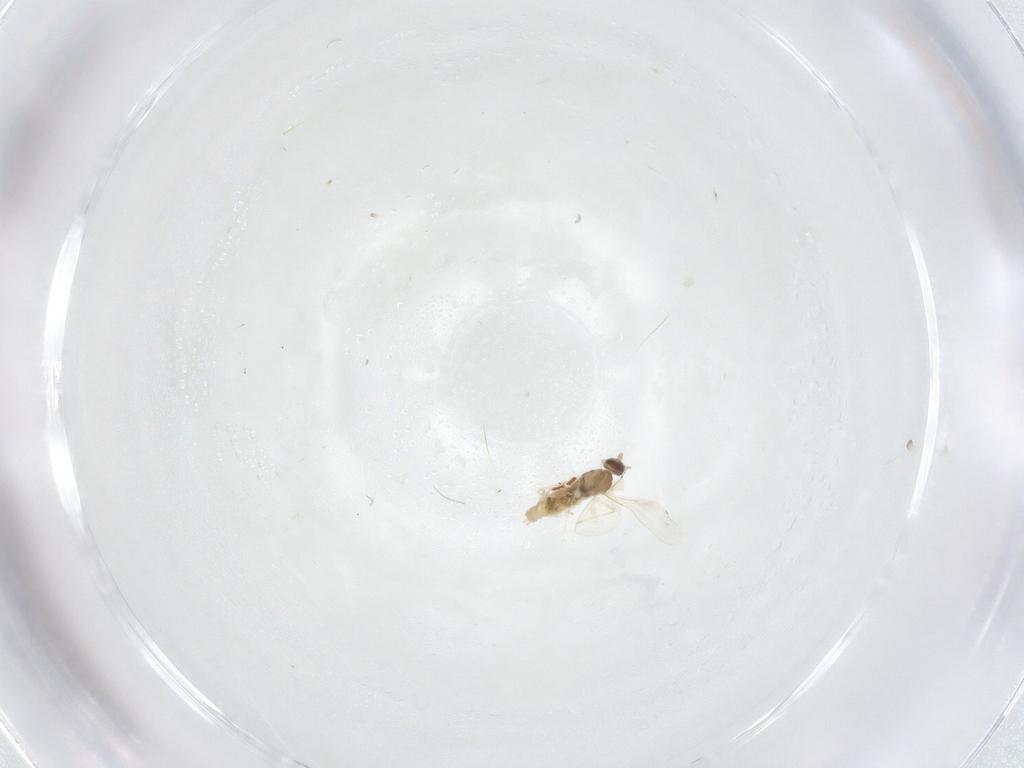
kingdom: Animalia
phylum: Arthropoda
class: Insecta
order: Diptera
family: Cecidomyiidae
